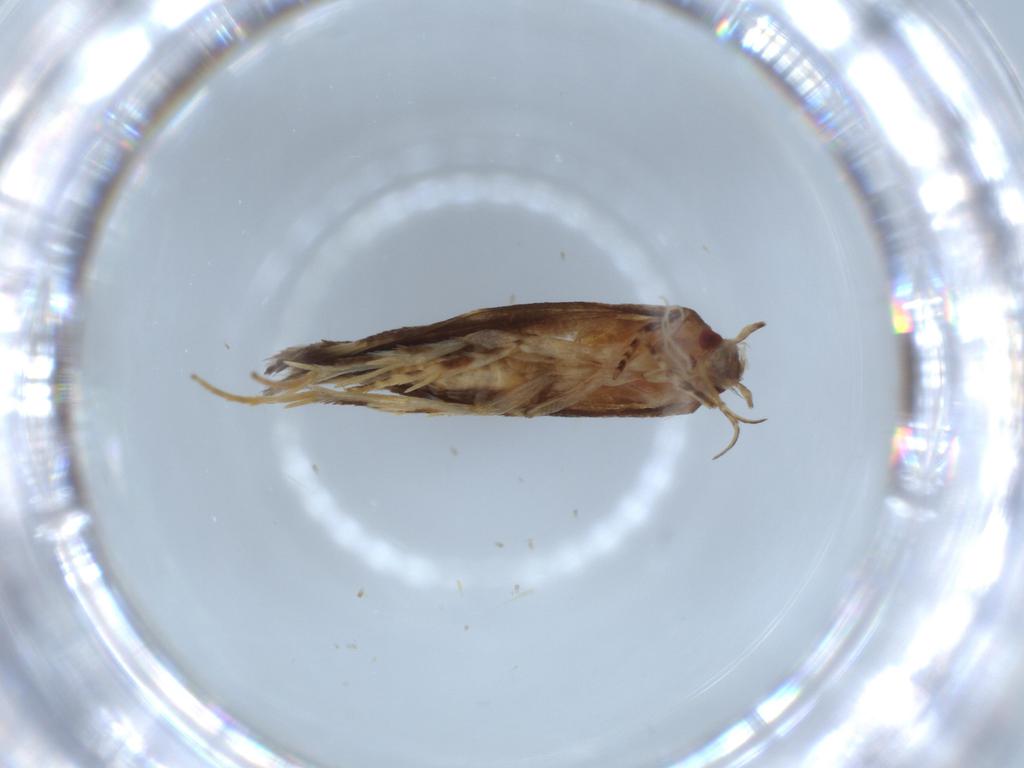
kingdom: Animalia
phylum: Arthropoda
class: Insecta
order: Lepidoptera
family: Cosmopterigidae
